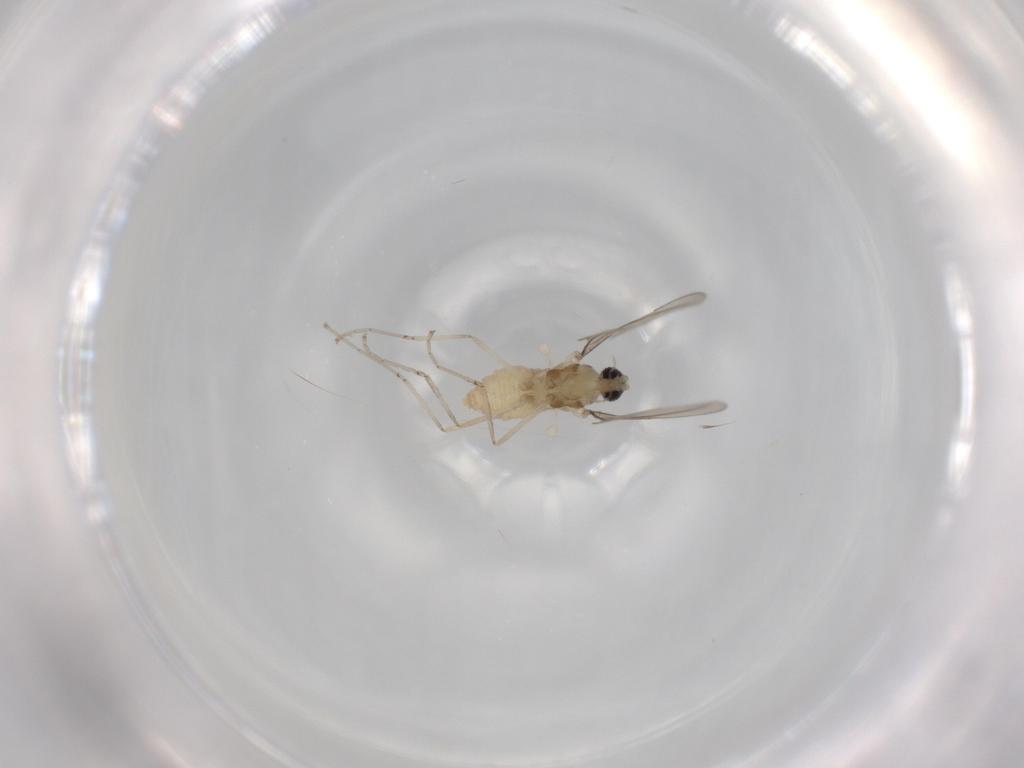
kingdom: Animalia
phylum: Arthropoda
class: Insecta
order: Diptera
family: Cecidomyiidae
